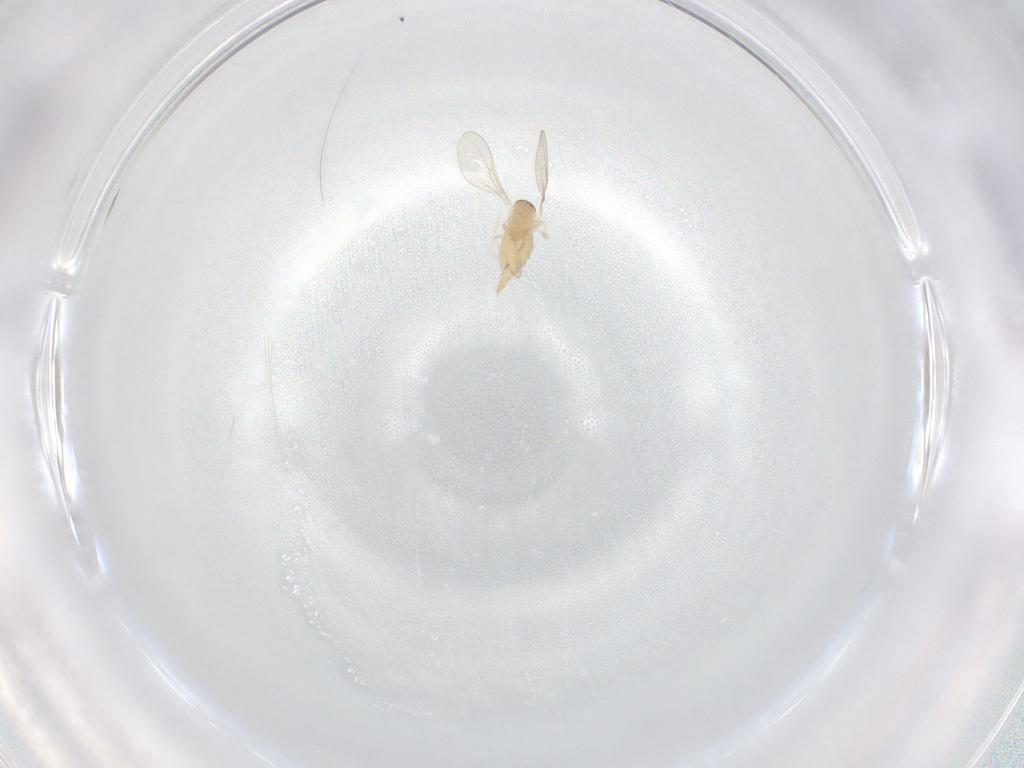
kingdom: Animalia
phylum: Arthropoda
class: Insecta
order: Diptera
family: Cecidomyiidae
